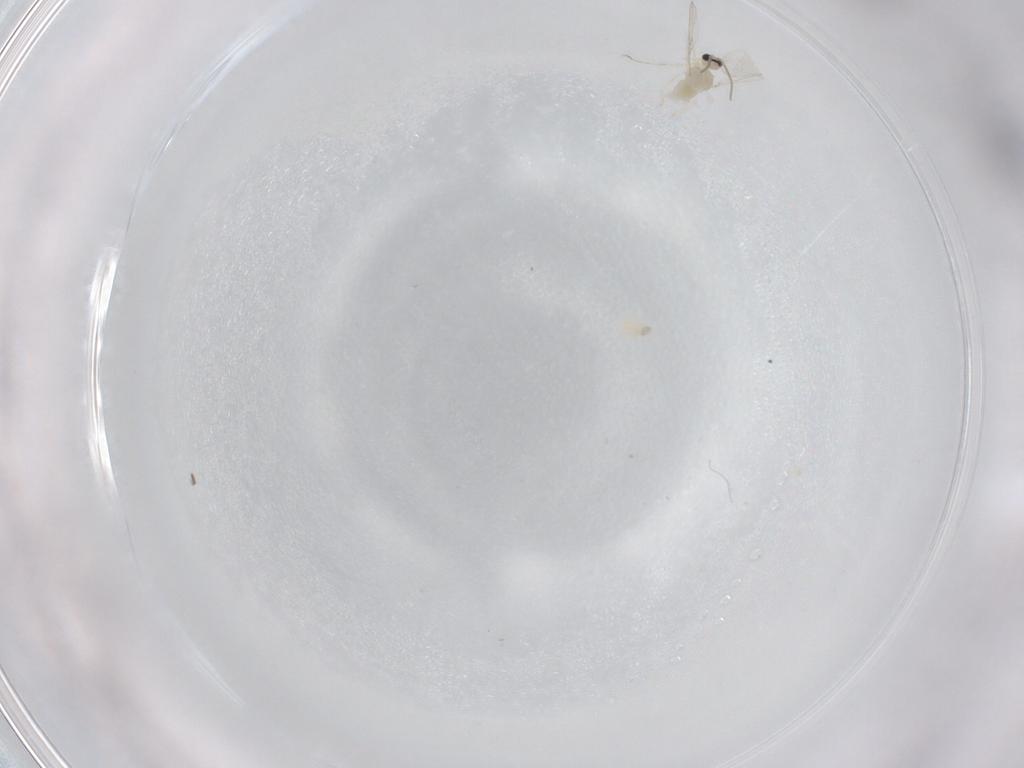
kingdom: Animalia
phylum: Arthropoda
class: Insecta
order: Diptera
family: Cecidomyiidae
